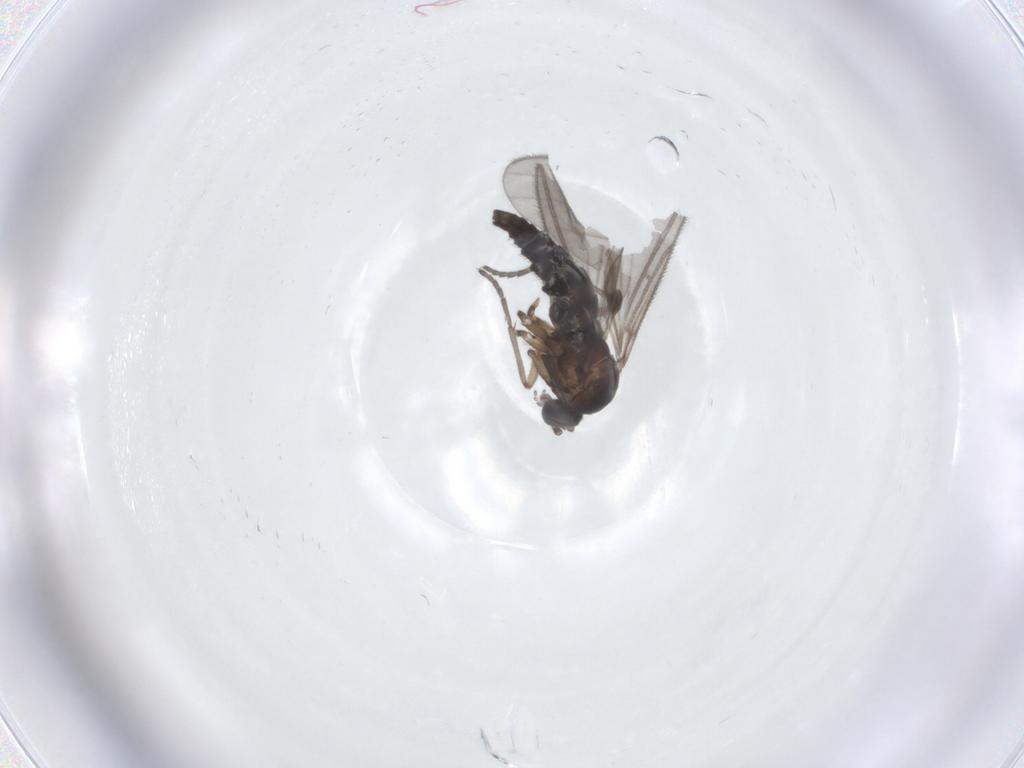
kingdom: Animalia
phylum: Arthropoda
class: Insecta
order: Diptera
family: Sciaridae
